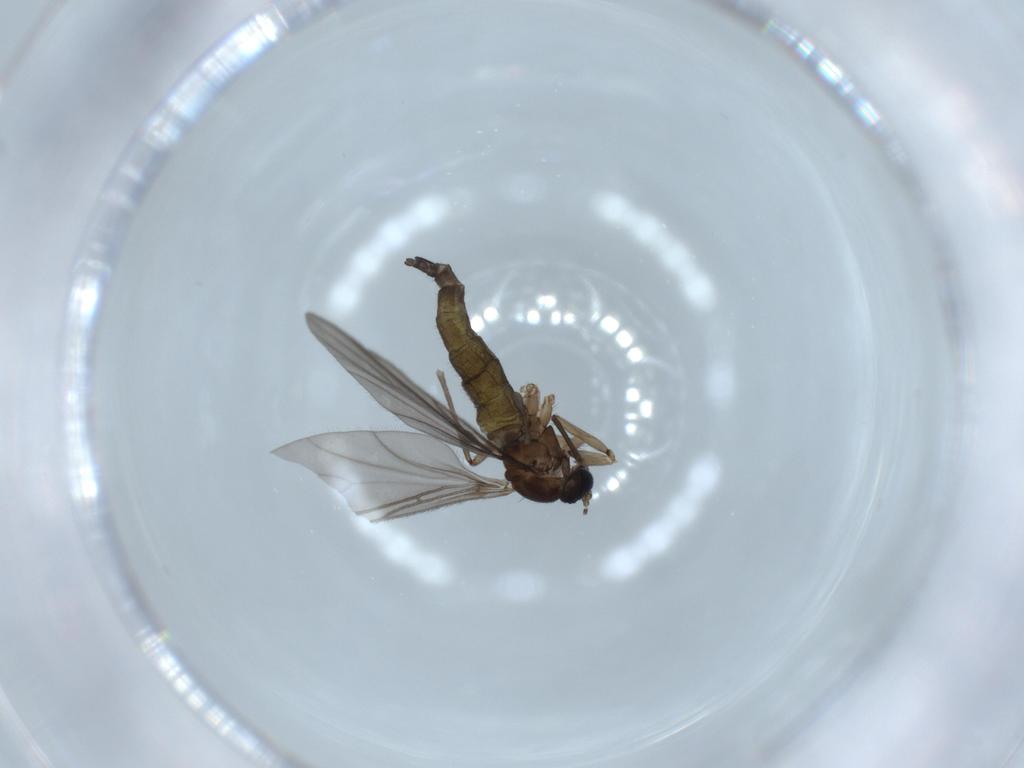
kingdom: Animalia
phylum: Arthropoda
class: Insecta
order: Diptera
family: Sciaridae
